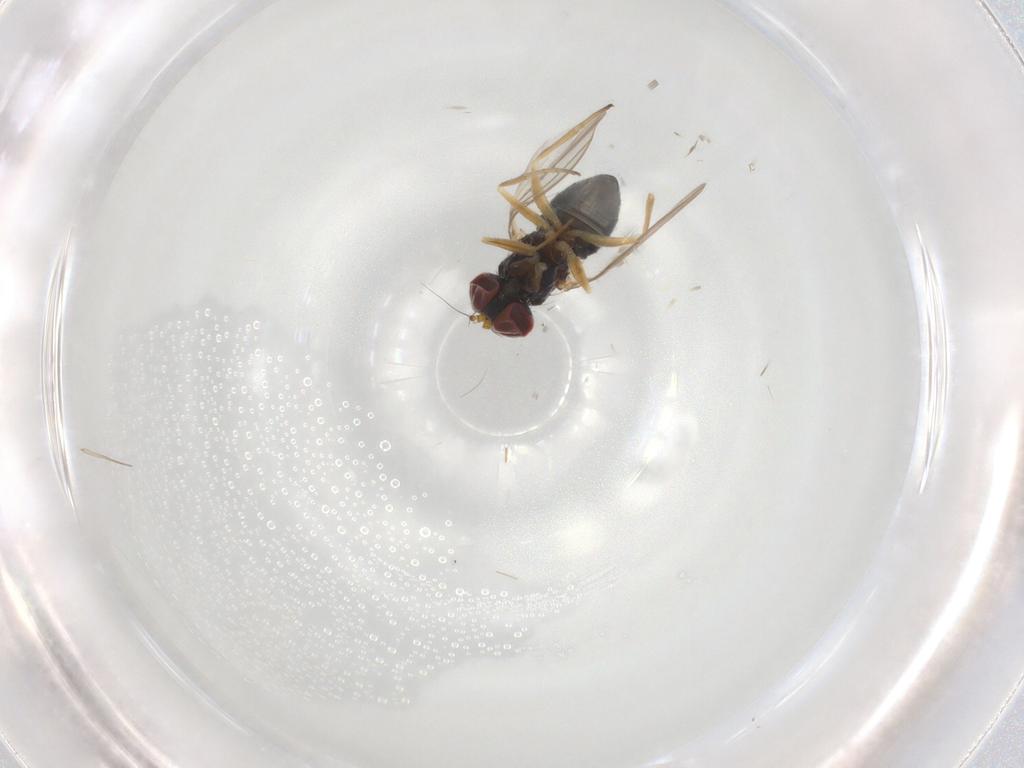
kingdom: Animalia
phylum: Arthropoda
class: Insecta
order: Diptera
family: Dolichopodidae
